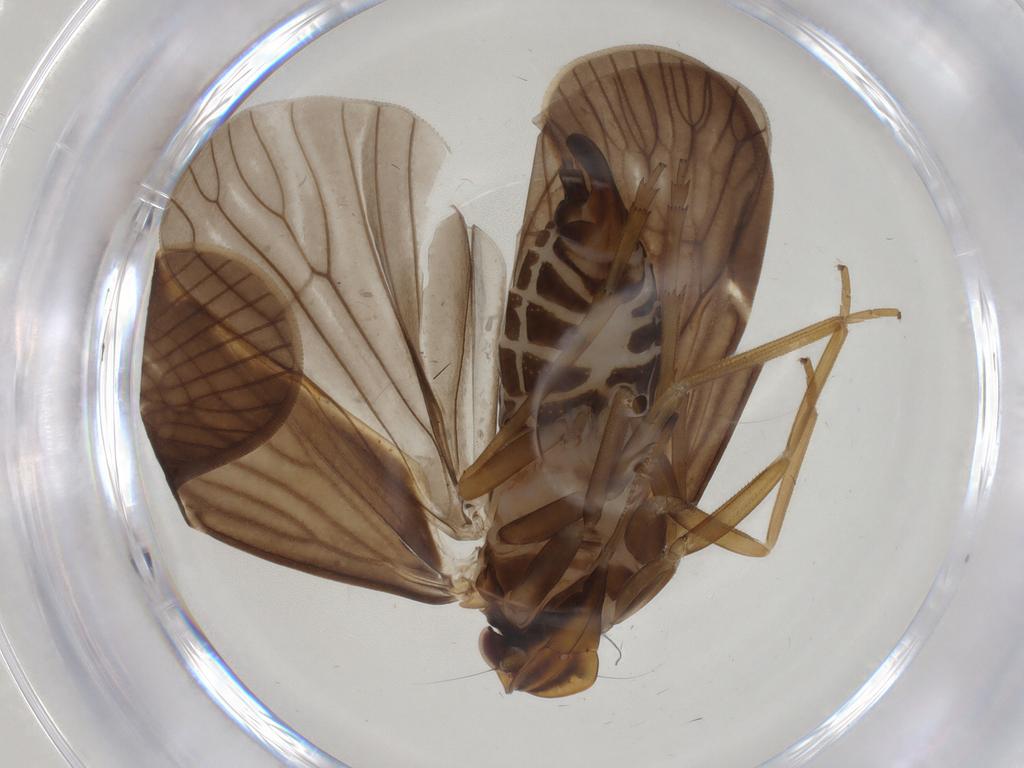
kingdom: Animalia
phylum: Arthropoda
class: Insecta
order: Hemiptera
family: Cixiidae
